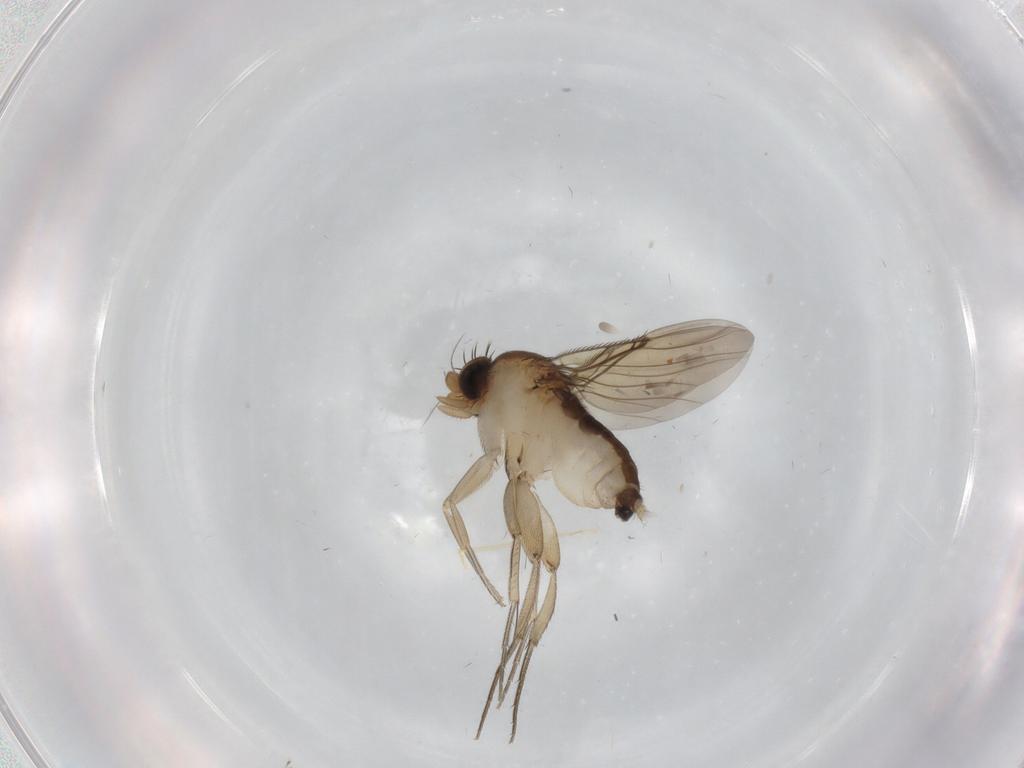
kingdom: Animalia
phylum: Arthropoda
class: Insecta
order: Diptera
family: Phoridae
